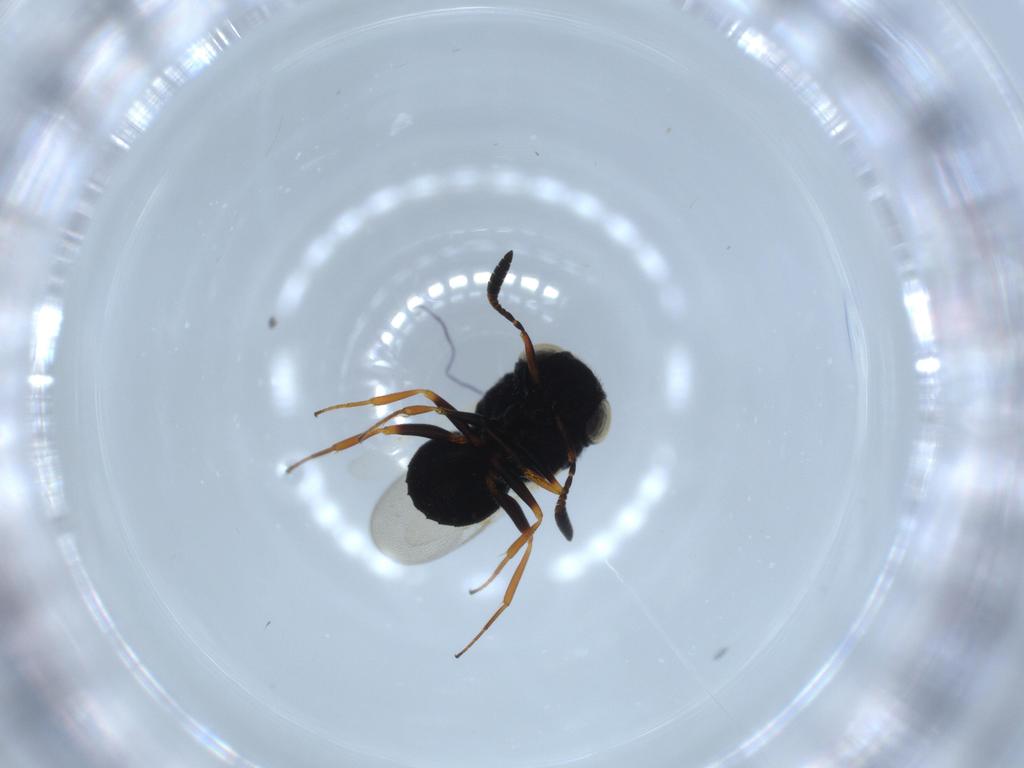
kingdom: Animalia
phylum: Arthropoda
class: Insecta
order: Hymenoptera
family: Scelionidae
